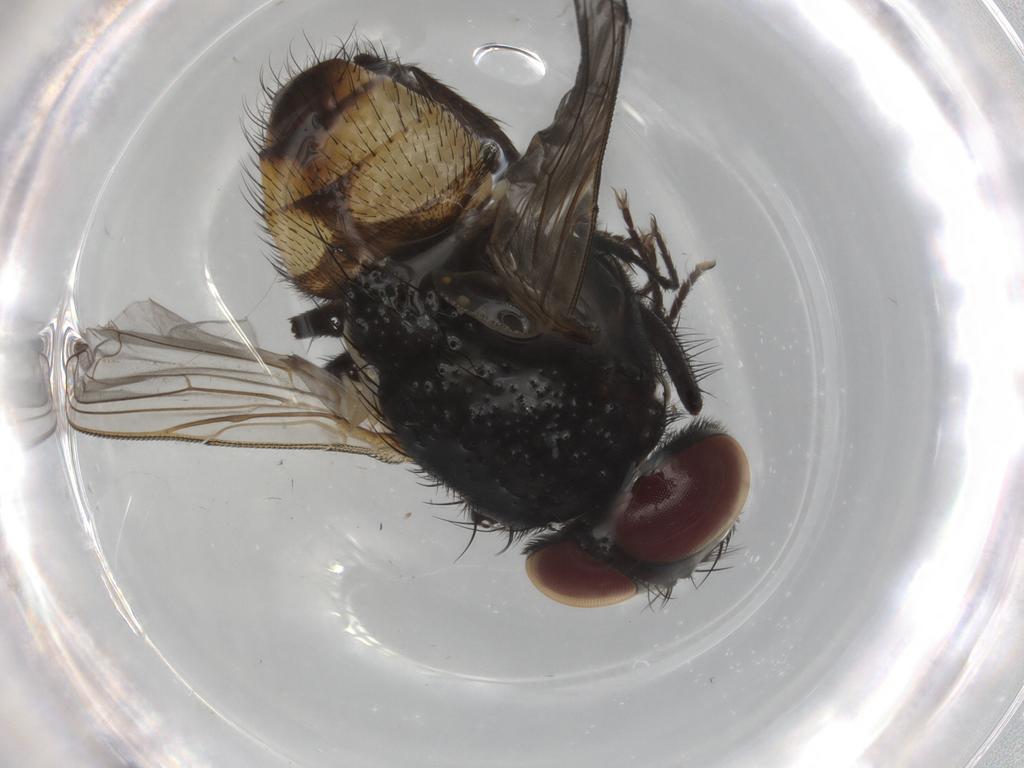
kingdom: Animalia
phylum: Arthropoda
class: Insecta
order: Diptera
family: Muscidae
